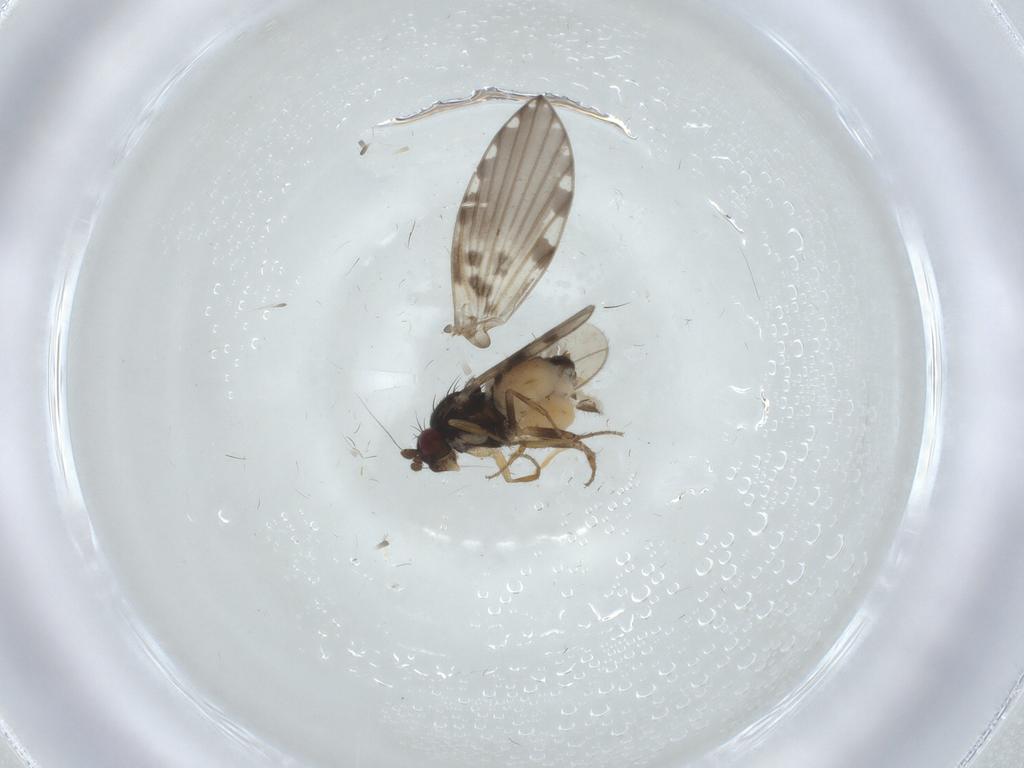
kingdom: Animalia
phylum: Arthropoda
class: Insecta
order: Diptera
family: Sphaeroceridae
